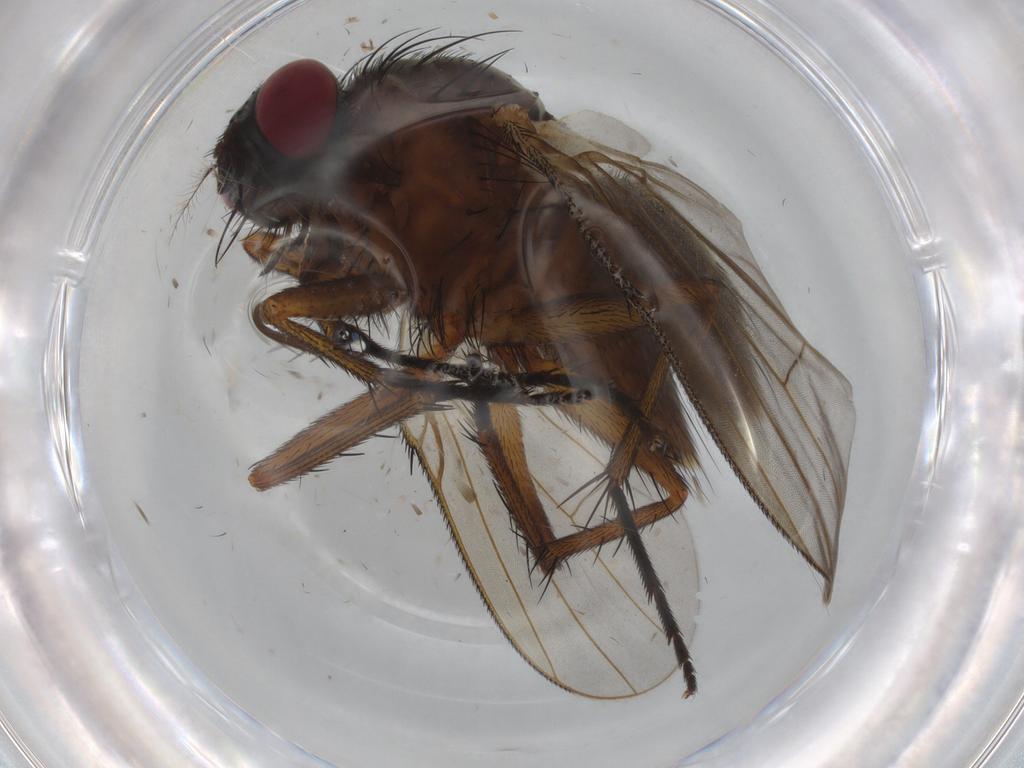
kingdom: Animalia
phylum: Arthropoda
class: Insecta
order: Diptera
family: Muscidae
